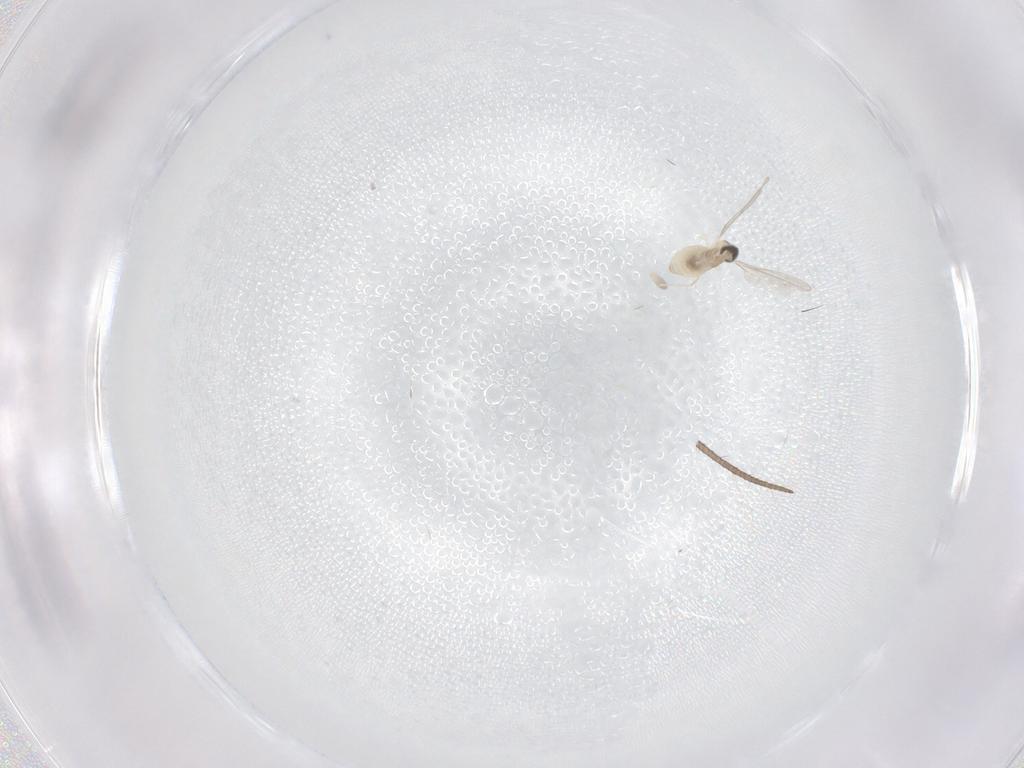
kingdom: Animalia
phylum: Arthropoda
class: Insecta
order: Diptera
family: Cecidomyiidae
